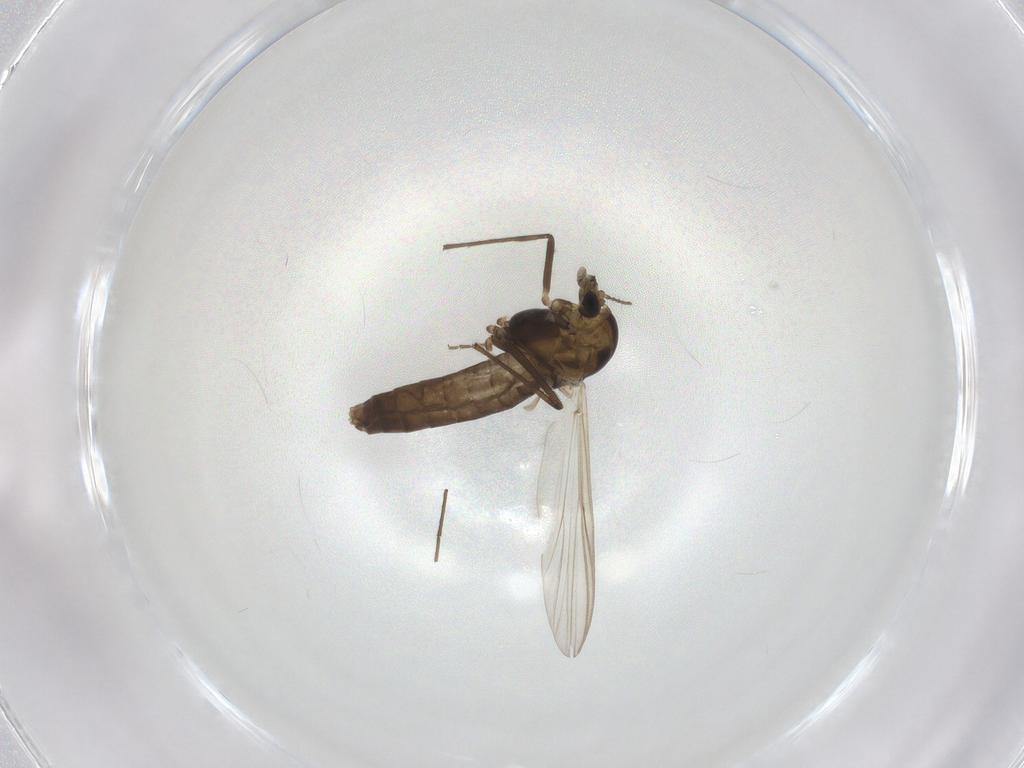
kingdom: Animalia
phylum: Arthropoda
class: Insecta
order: Diptera
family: Chironomidae
